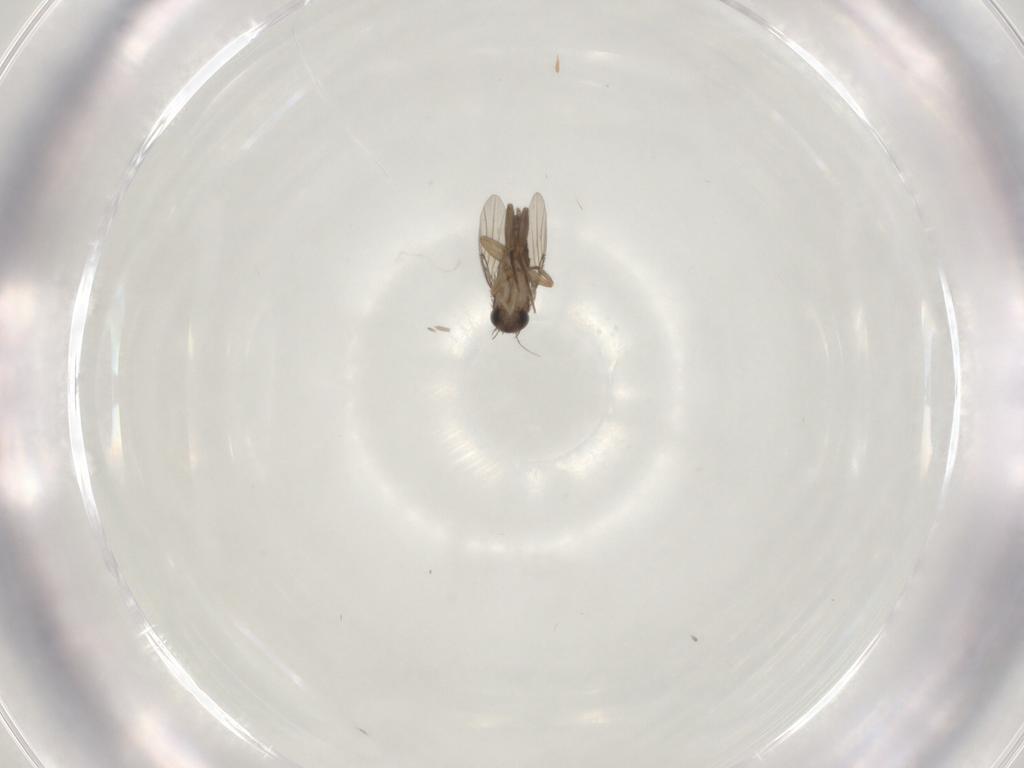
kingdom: Animalia
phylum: Arthropoda
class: Insecta
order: Diptera
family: Phoridae
